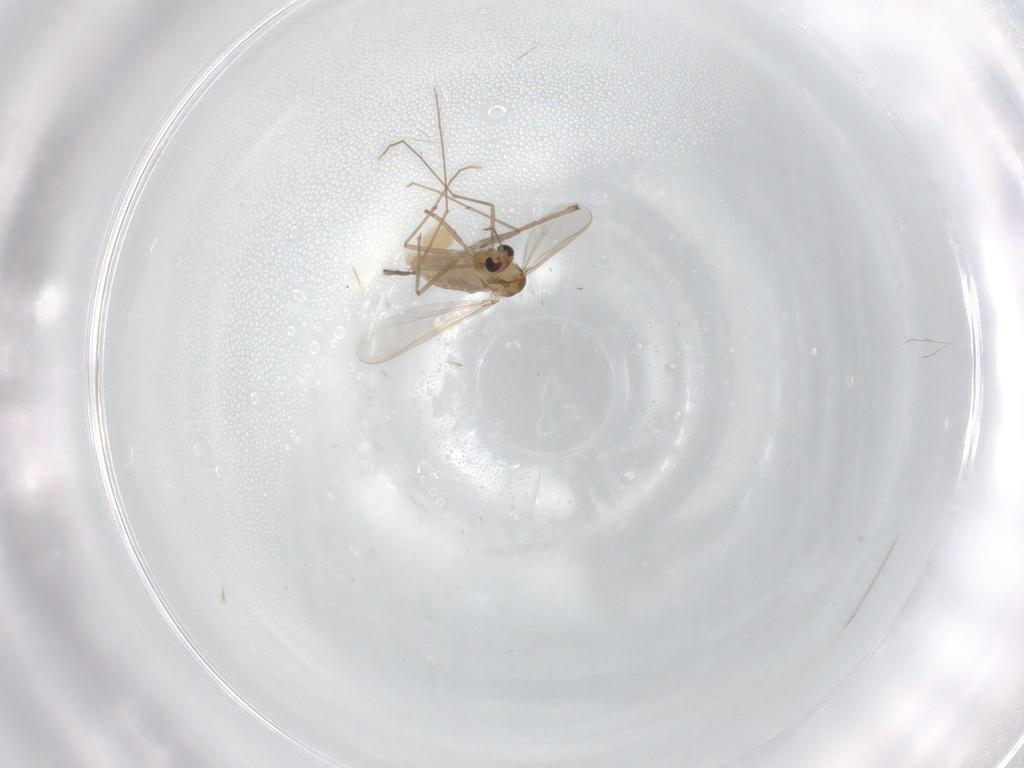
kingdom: Animalia
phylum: Arthropoda
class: Insecta
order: Diptera
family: Chironomidae
